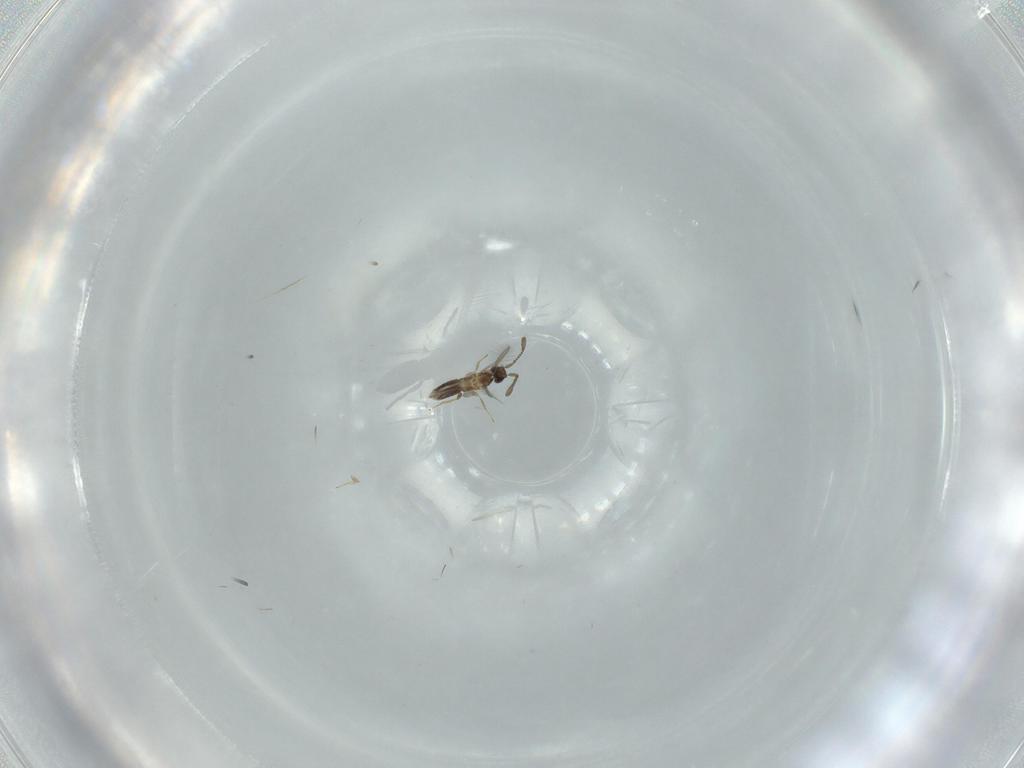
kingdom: Animalia
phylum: Arthropoda
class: Insecta
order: Hymenoptera
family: Mymaridae
